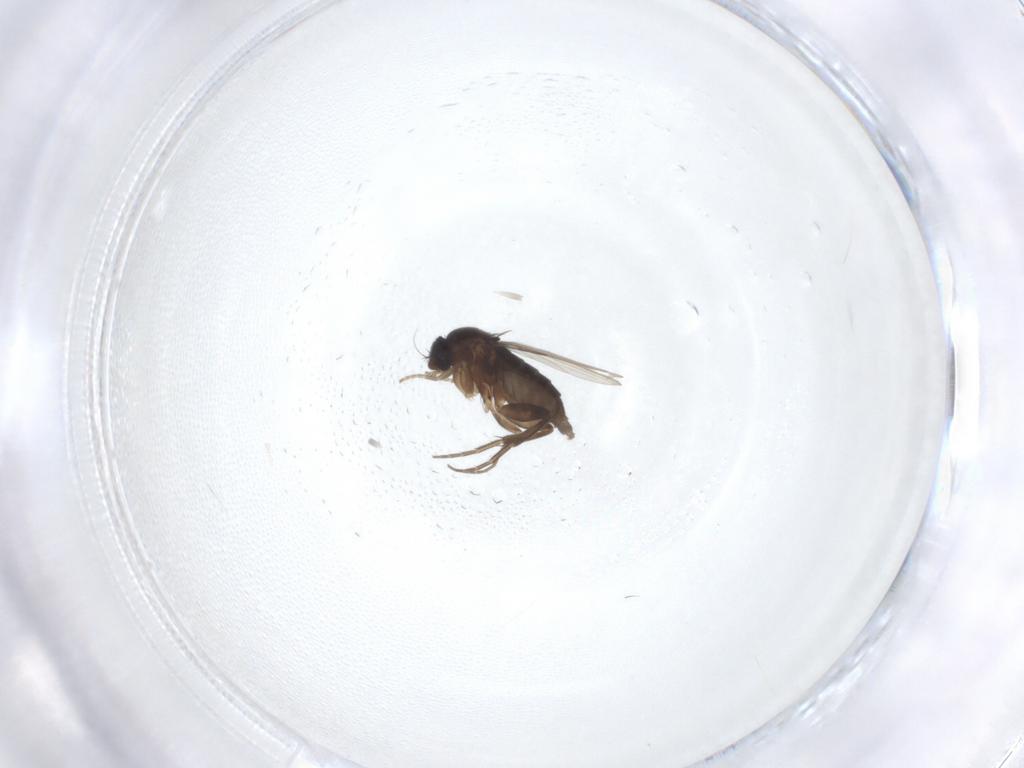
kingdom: Animalia
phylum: Arthropoda
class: Insecta
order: Diptera
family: Phoridae
